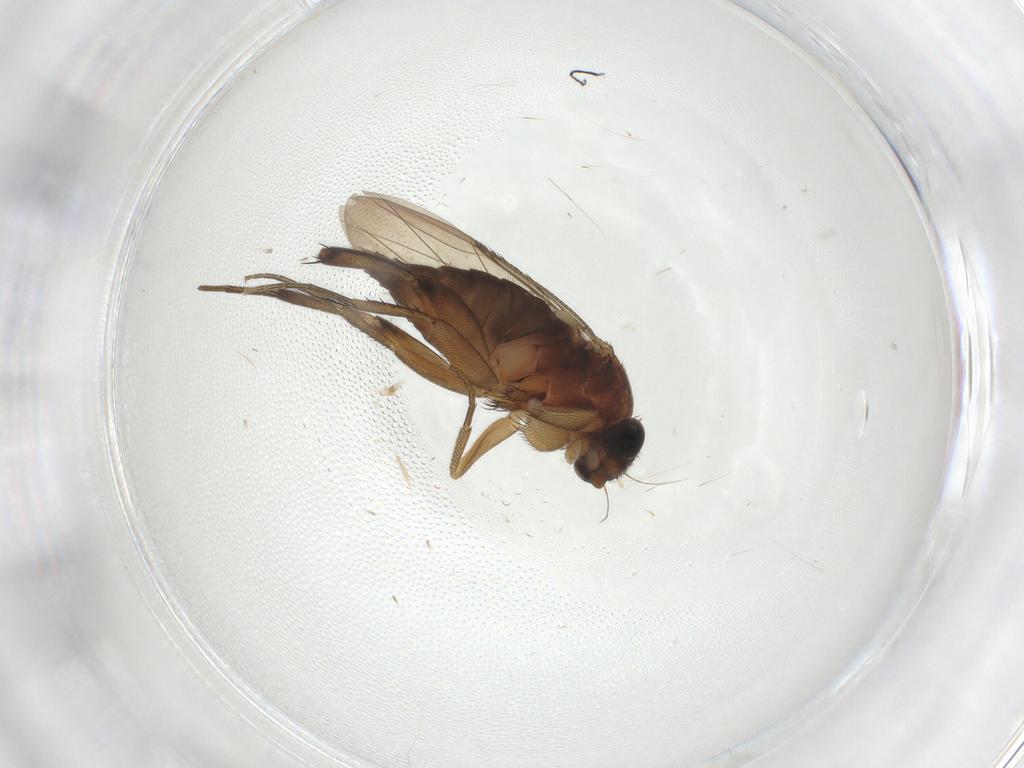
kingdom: Animalia
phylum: Arthropoda
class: Insecta
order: Diptera
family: Phoridae
